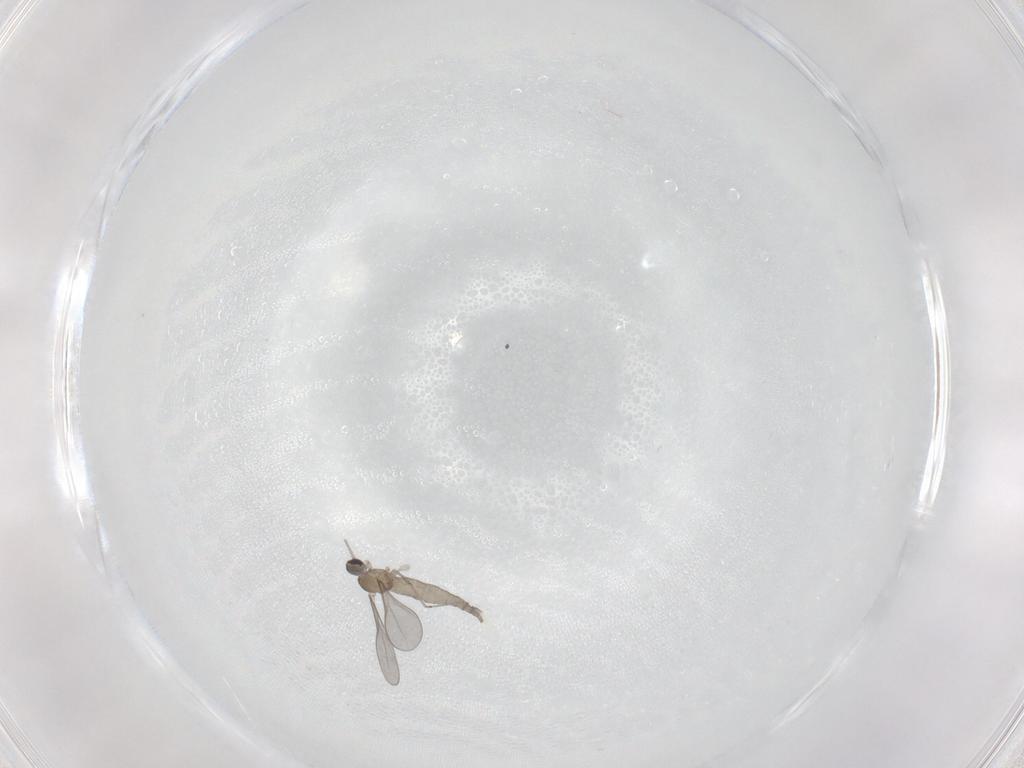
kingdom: Animalia
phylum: Arthropoda
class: Insecta
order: Diptera
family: Cecidomyiidae
